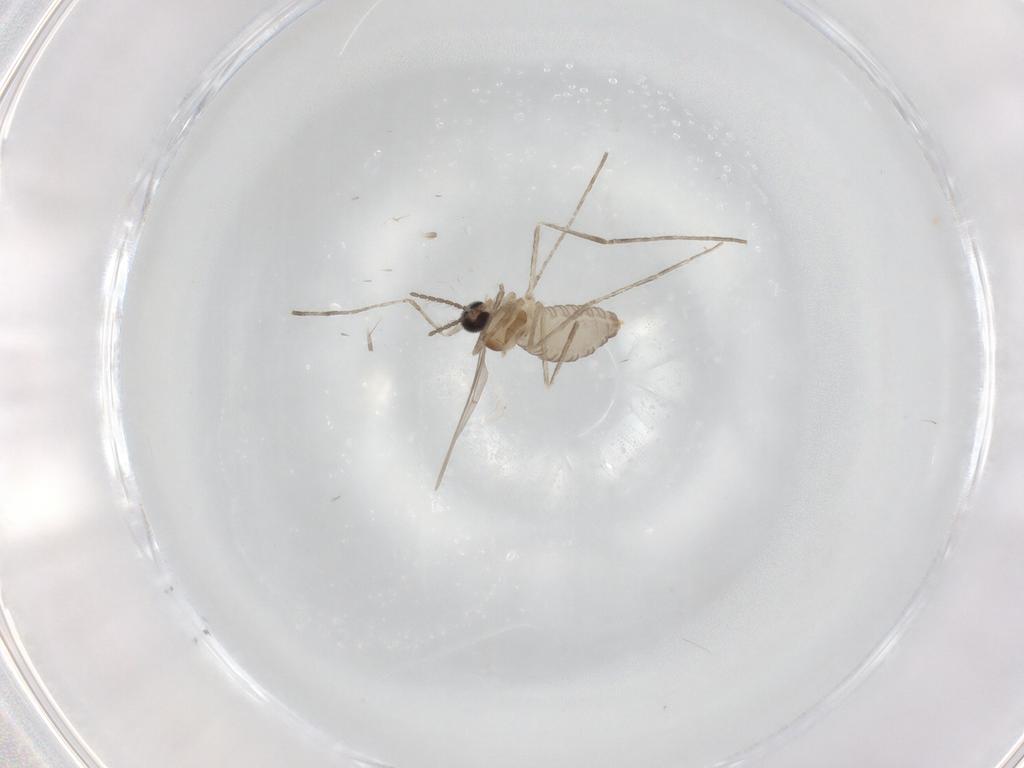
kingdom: Animalia
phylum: Arthropoda
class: Insecta
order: Diptera
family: Cecidomyiidae
